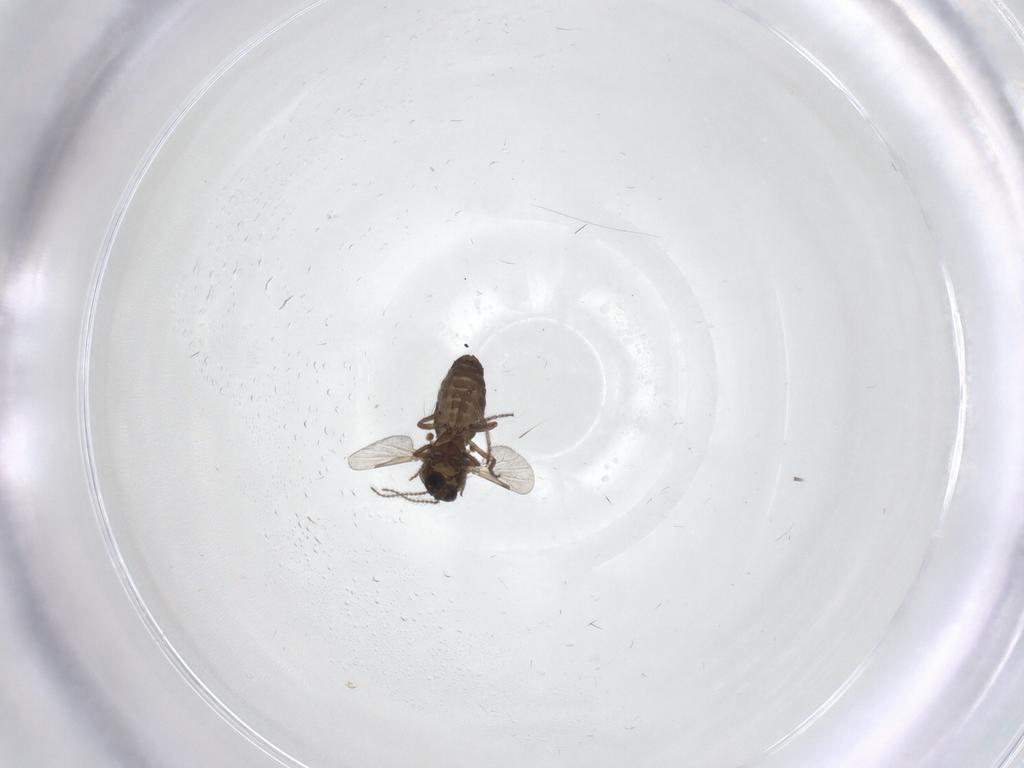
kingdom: Animalia
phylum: Arthropoda
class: Insecta
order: Diptera
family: Ceratopogonidae
